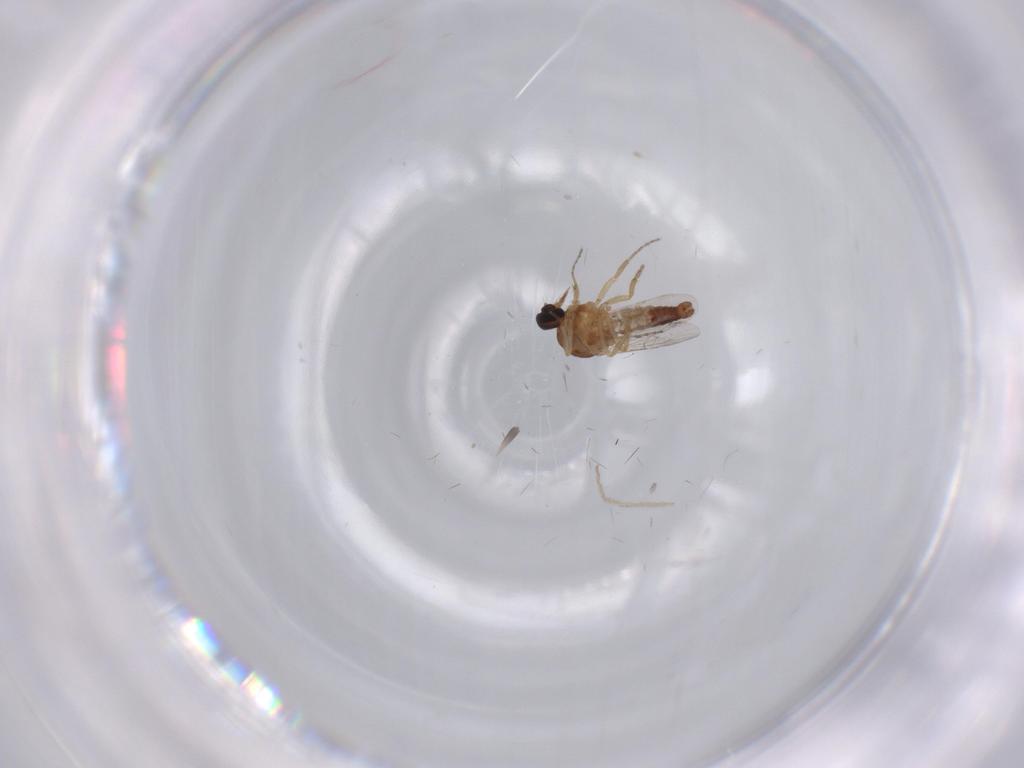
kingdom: Animalia
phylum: Arthropoda
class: Insecta
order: Diptera
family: Ceratopogonidae
